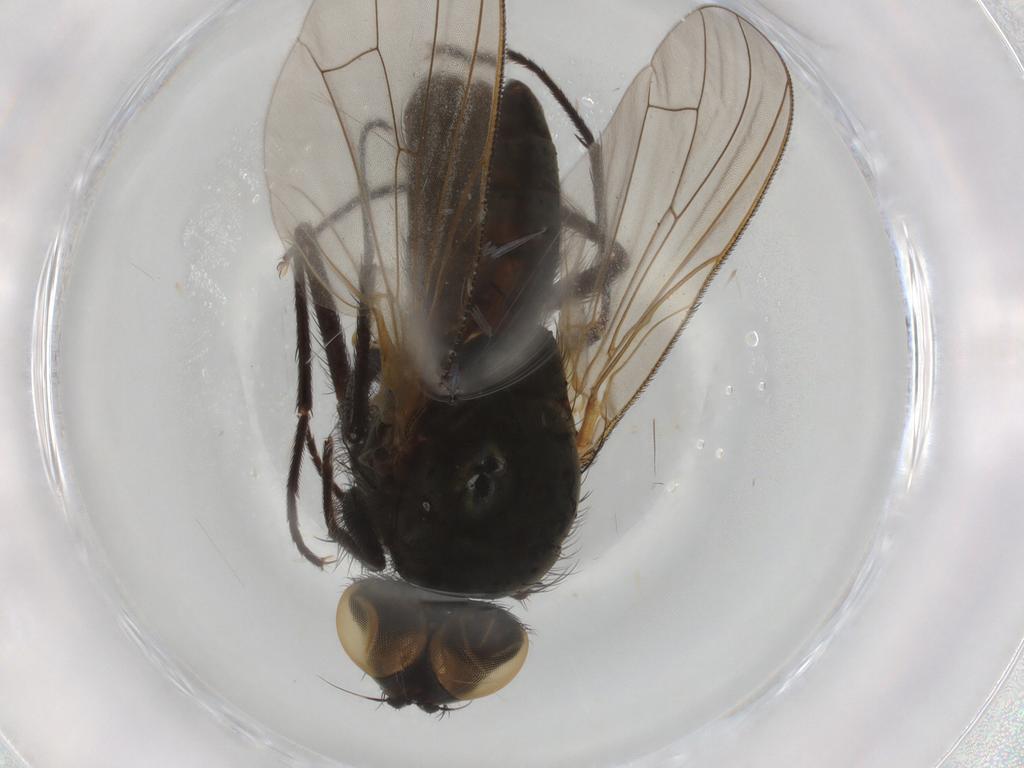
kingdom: Animalia
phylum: Arthropoda
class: Insecta
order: Diptera
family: Anthomyiidae
